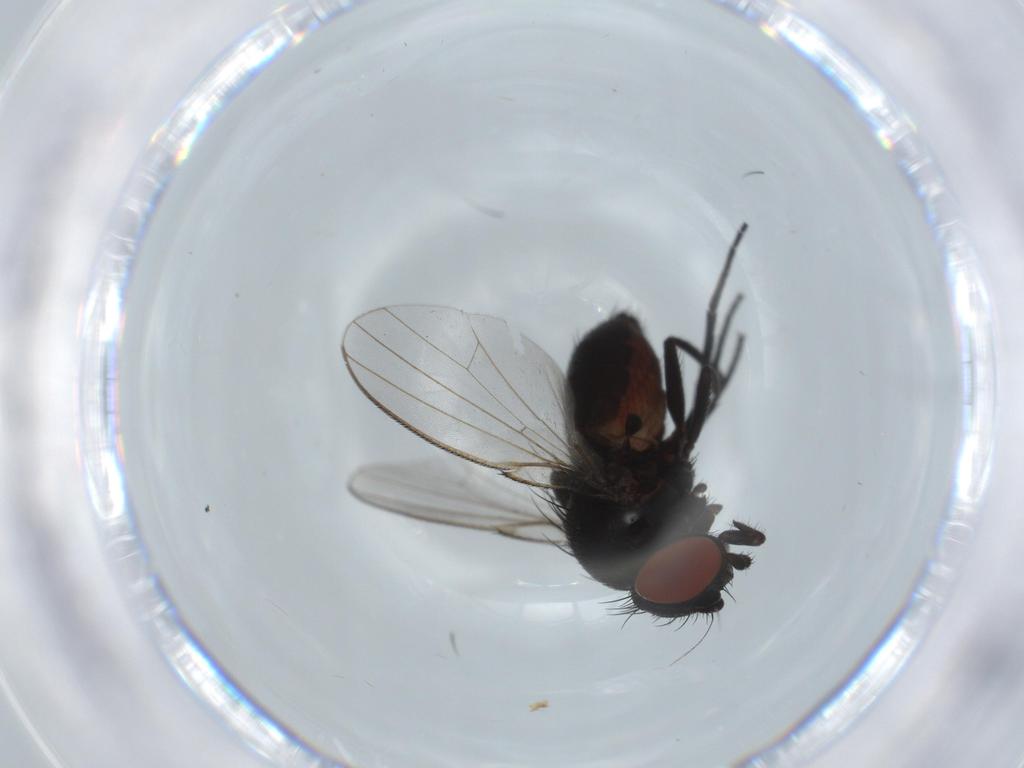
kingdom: Animalia
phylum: Arthropoda
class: Insecta
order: Diptera
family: Milichiidae
